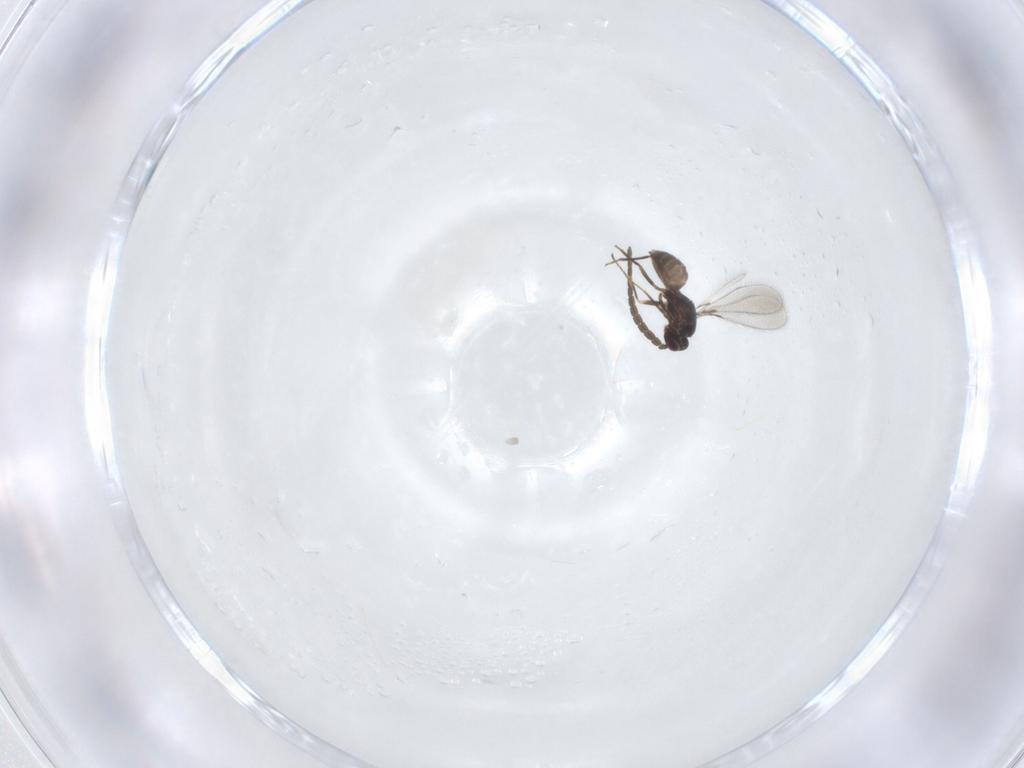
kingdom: Animalia
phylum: Arthropoda
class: Insecta
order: Hymenoptera
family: Mymaridae
